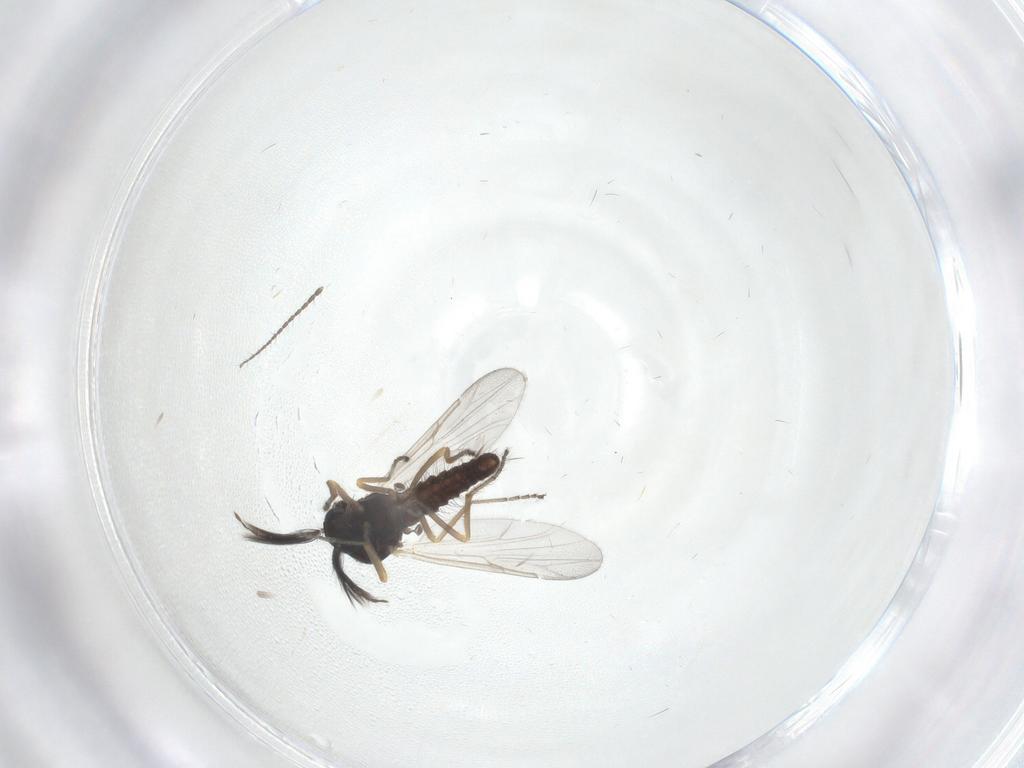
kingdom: Animalia
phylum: Arthropoda
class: Insecta
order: Diptera
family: Ceratopogonidae
